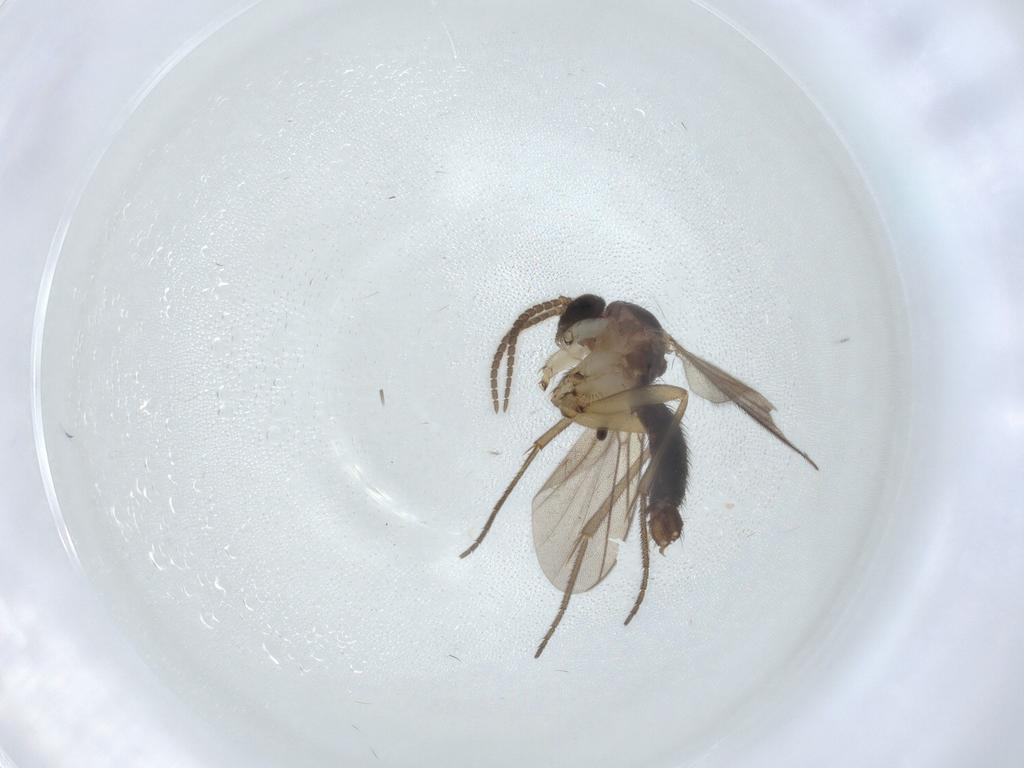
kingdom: Animalia
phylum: Arthropoda
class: Insecta
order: Diptera
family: Mycetophilidae
